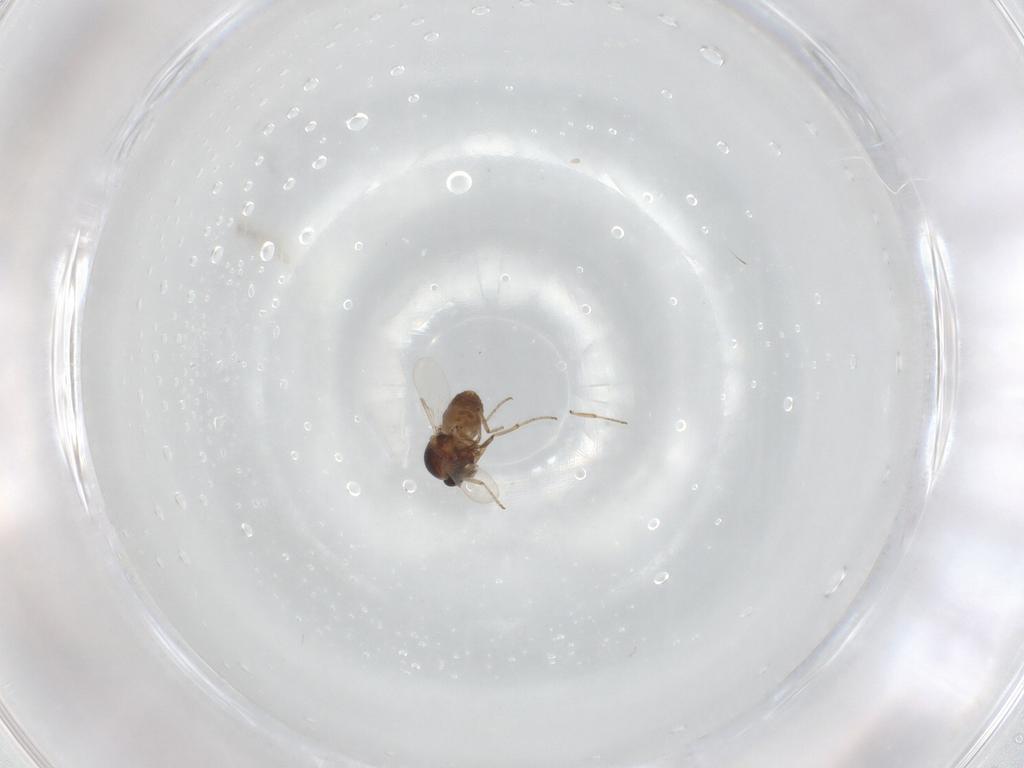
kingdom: Animalia
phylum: Arthropoda
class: Insecta
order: Diptera
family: Ceratopogonidae
